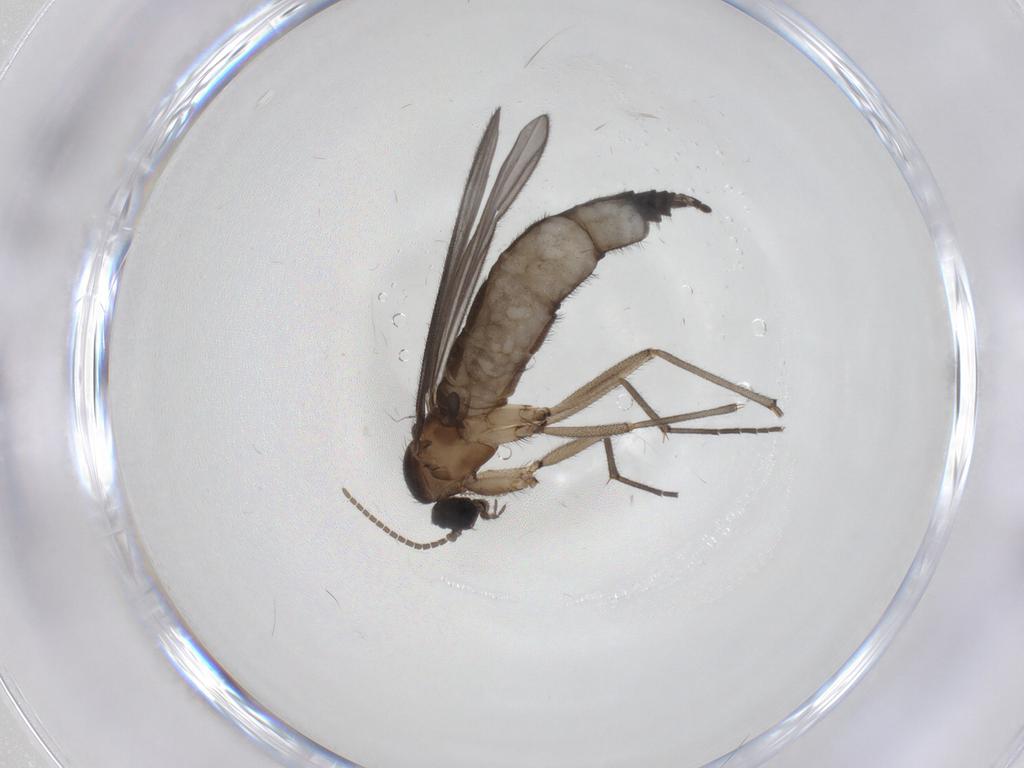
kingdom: Animalia
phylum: Arthropoda
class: Insecta
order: Diptera
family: Ceratopogonidae
